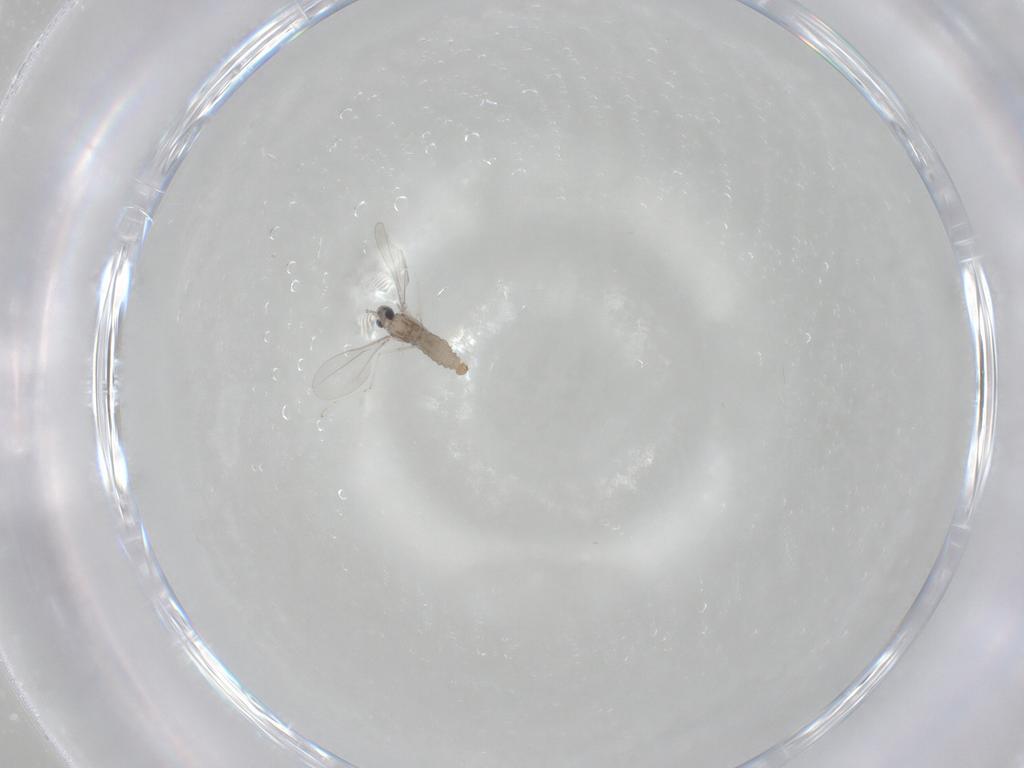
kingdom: Animalia
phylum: Arthropoda
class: Insecta
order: Diptera
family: Cecidomyiidae
